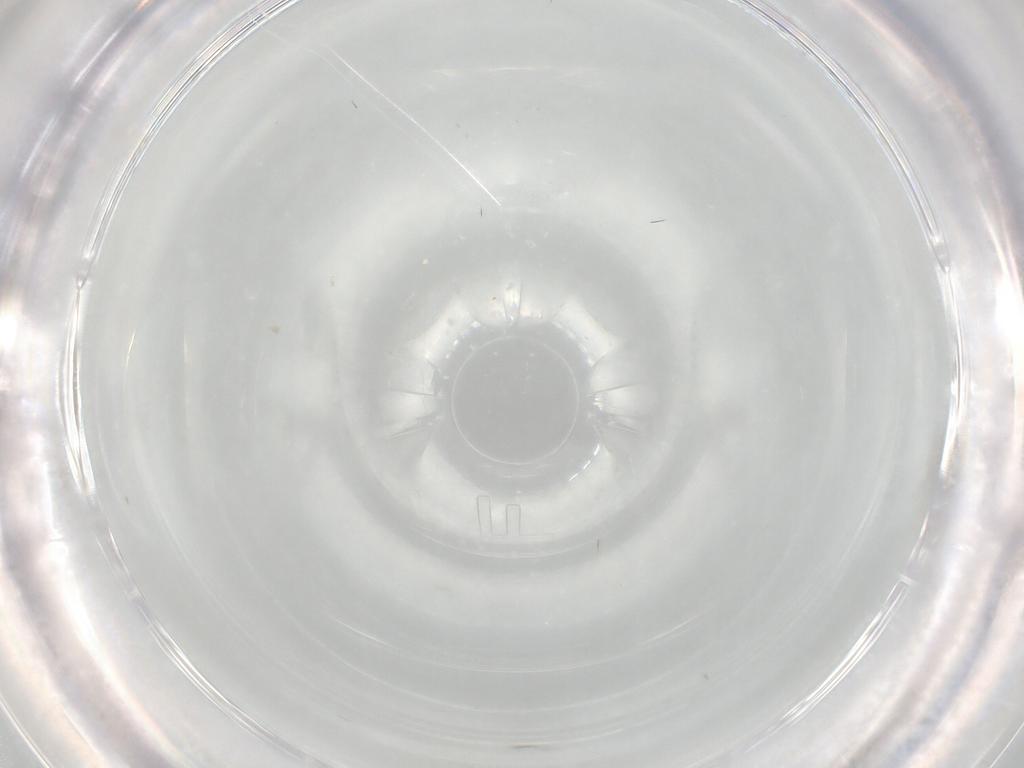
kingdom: Animalia
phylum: Arthropoda
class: Insecta
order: Diptera
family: Chironomidae
